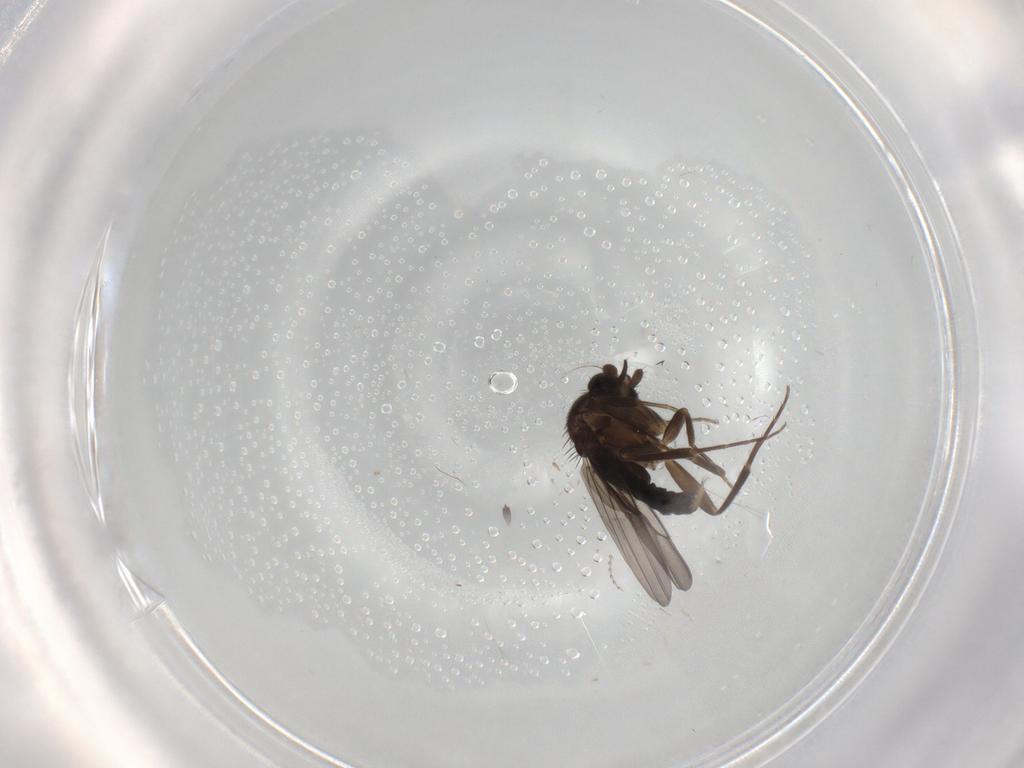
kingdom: Animalia
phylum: Arthropoda
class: Insecta
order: Diptera
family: Phoridae
